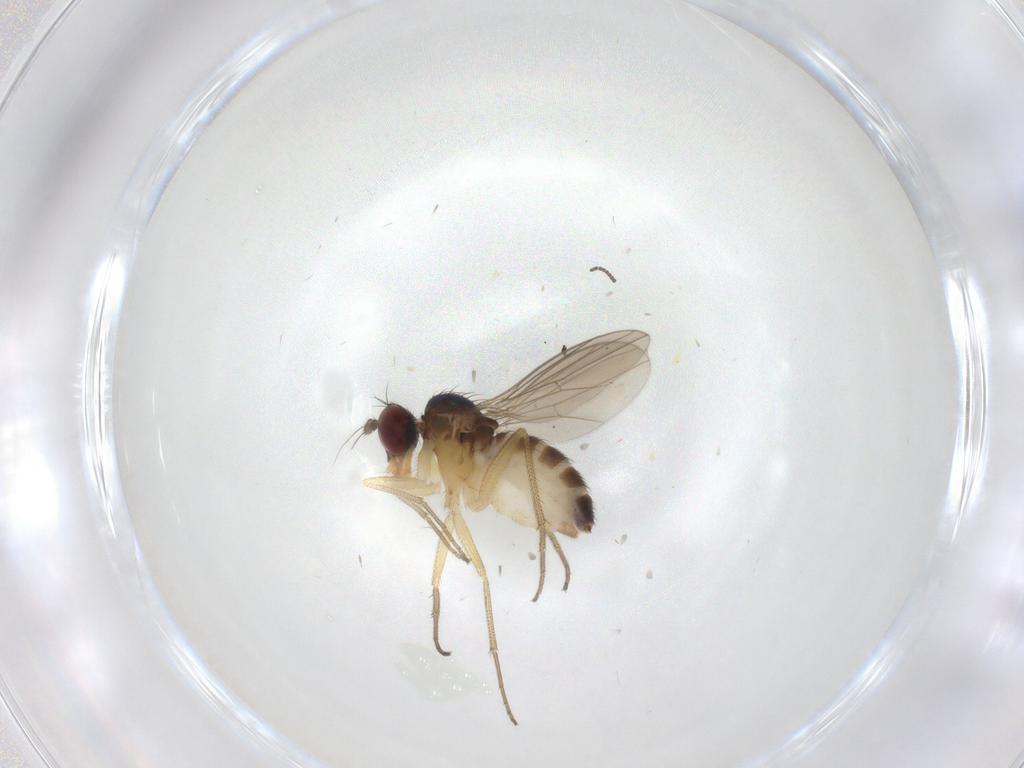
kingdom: Animalia
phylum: Arthropoda
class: Insecta
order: Diptera
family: Dolichopodidae
